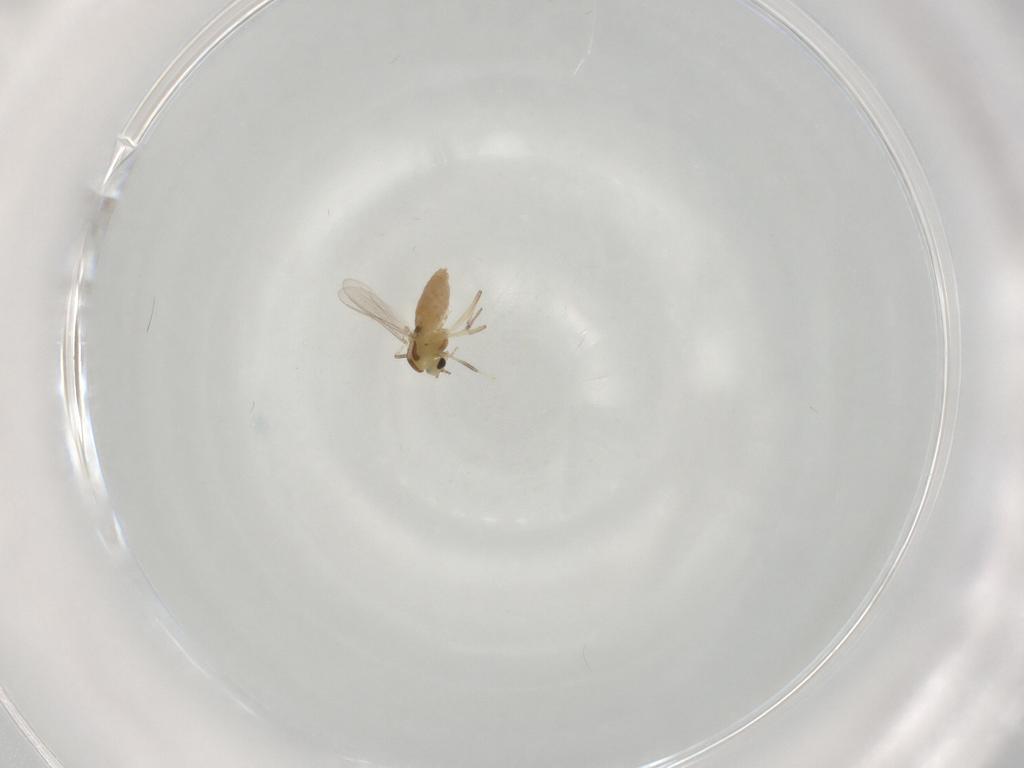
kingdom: Animalia
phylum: Arthropoda
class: Insecta
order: Diptera
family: Chironomidae
